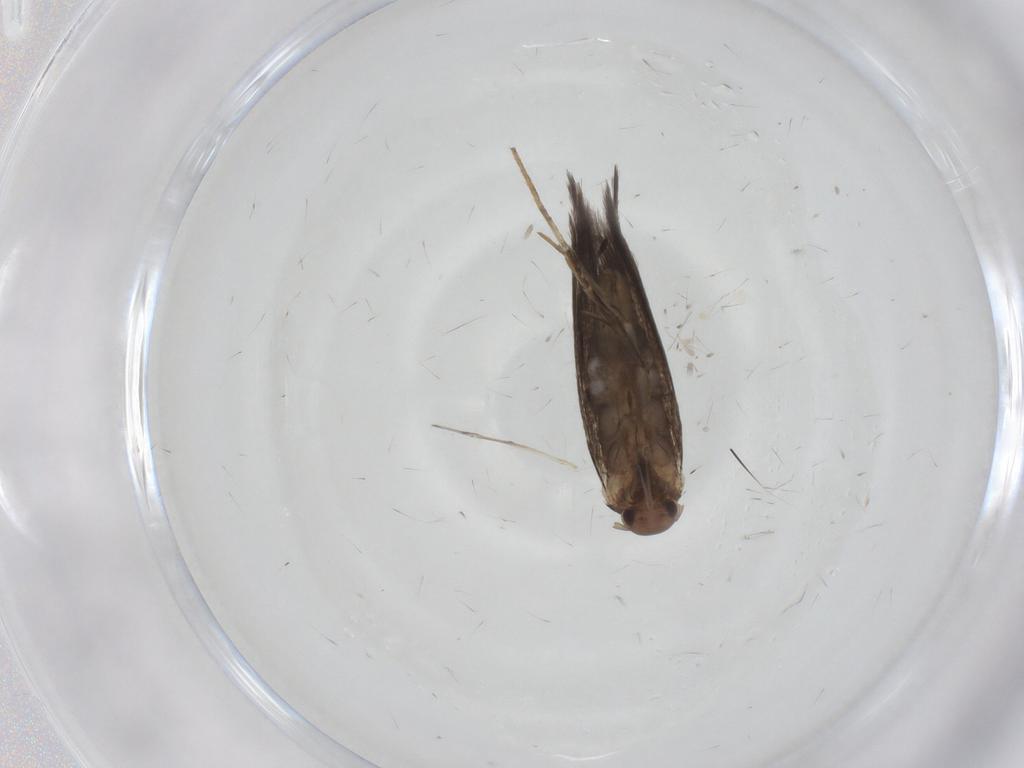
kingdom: Animalia
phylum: Arthropoda
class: Insecta
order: Lepidoptera
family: Elachistidae
